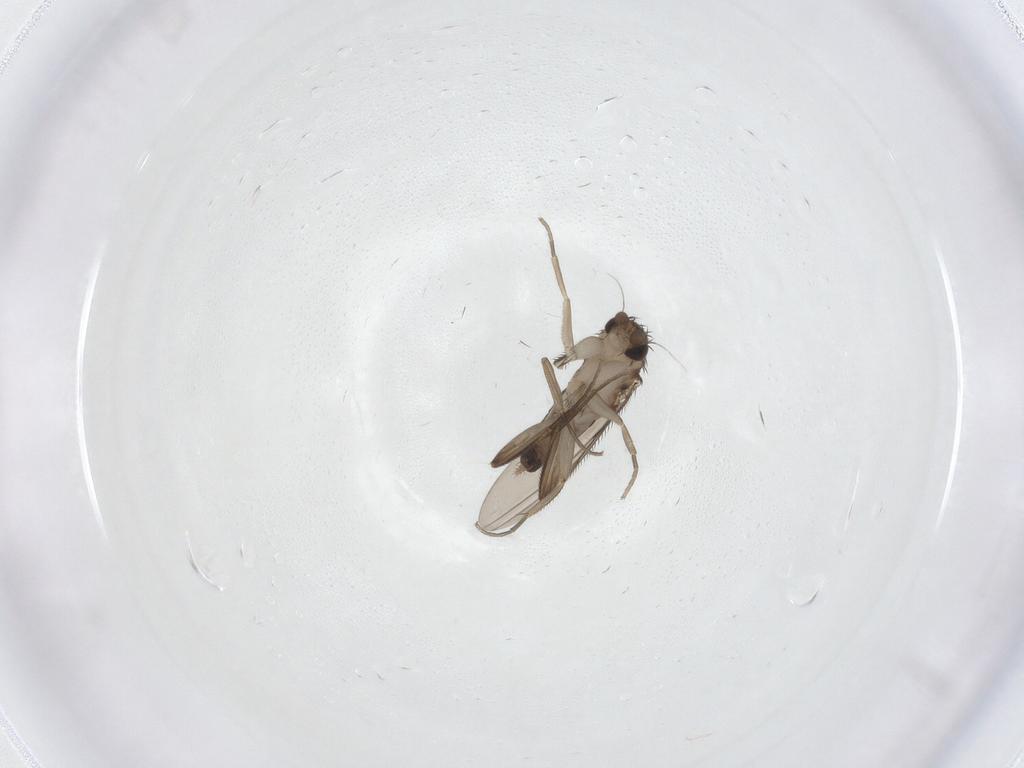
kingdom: Animalia
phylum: Arthropoda
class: Insecta
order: Diptera
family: Phoridae
